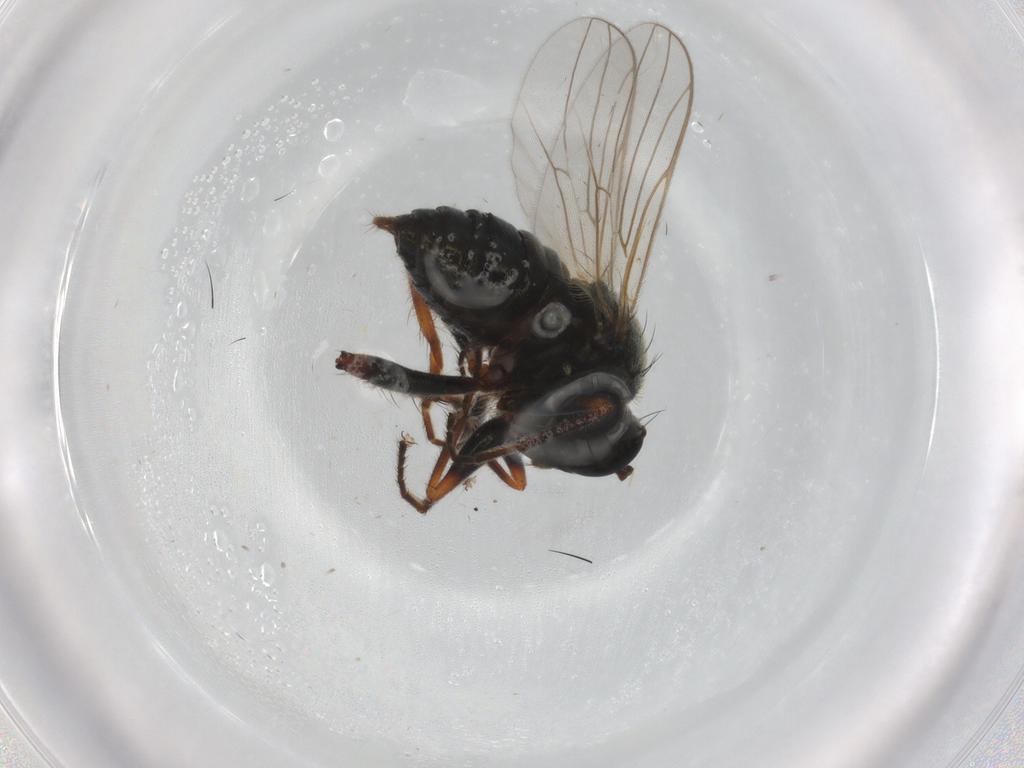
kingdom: Animalia
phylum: Arthropoda
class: Insecta
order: Diptera
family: Hybotidae
